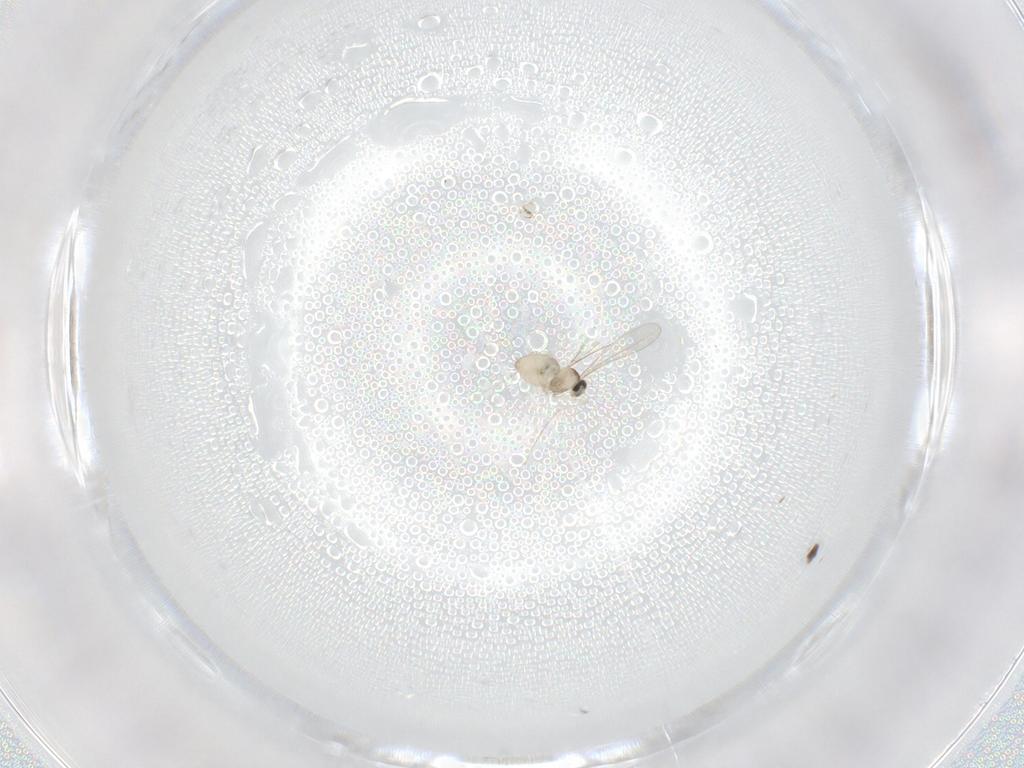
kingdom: Animalia
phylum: Arthropoda
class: Insecta
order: Diptera
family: Cecidomyiidae
